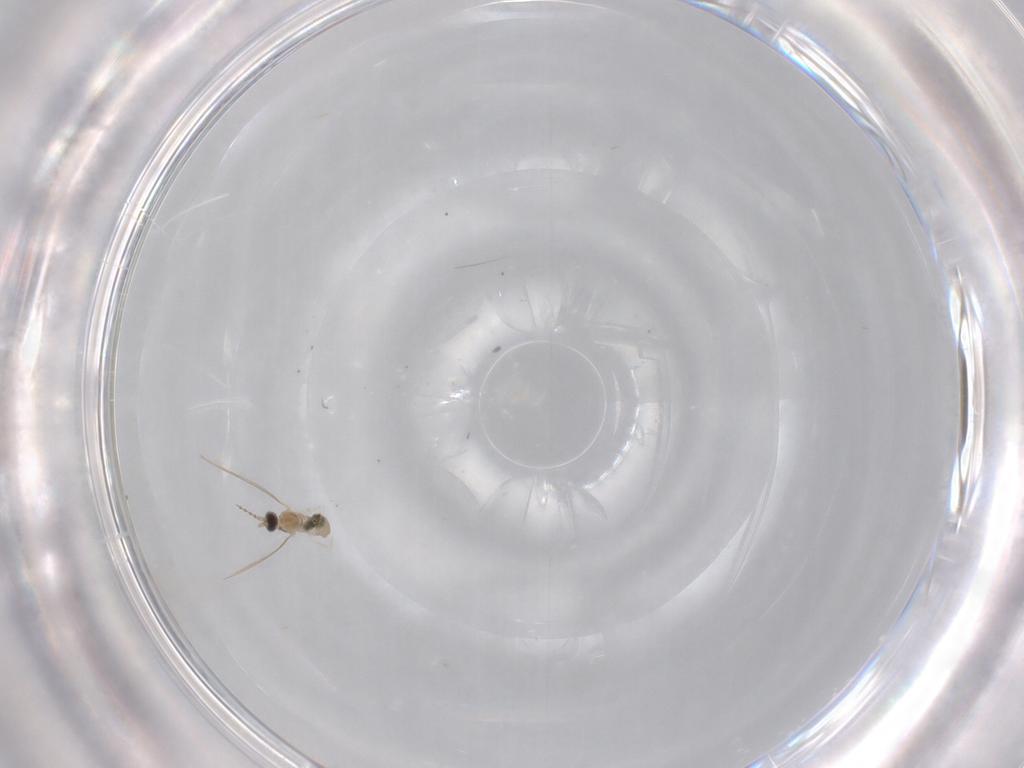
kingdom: Animalia
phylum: Arthropoda
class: Insecta
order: Diptera
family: Cecidomyiidae
